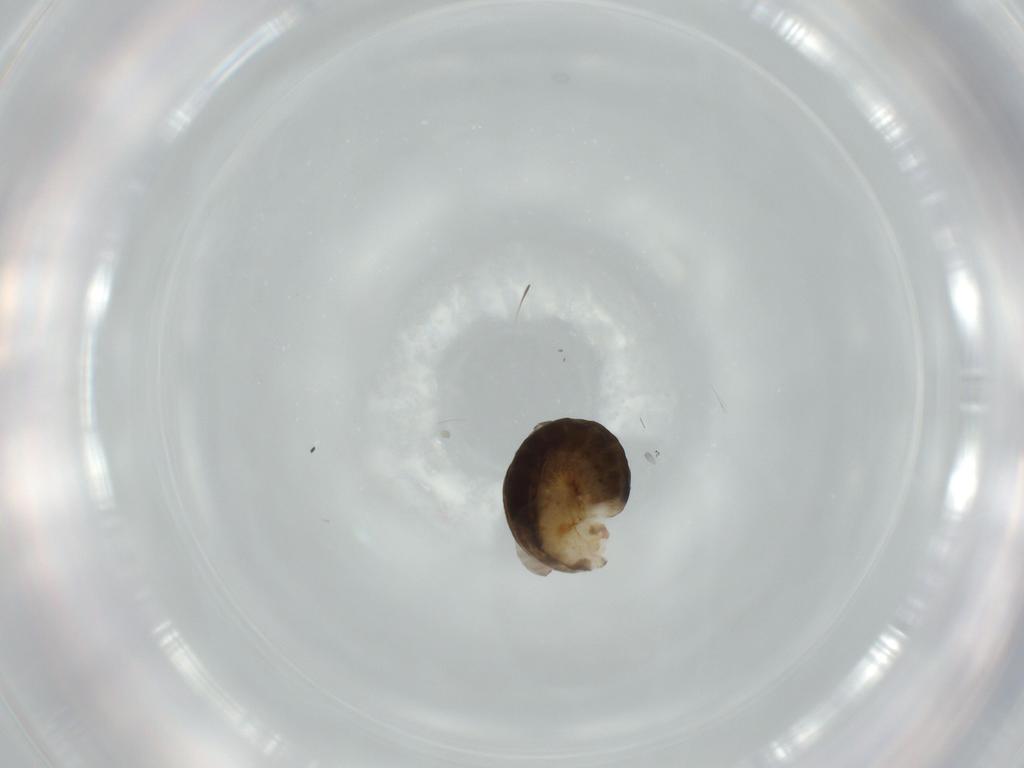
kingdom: Animalia
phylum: Arthropoda
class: Insecta
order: Hymenoptera
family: Dryinidae
